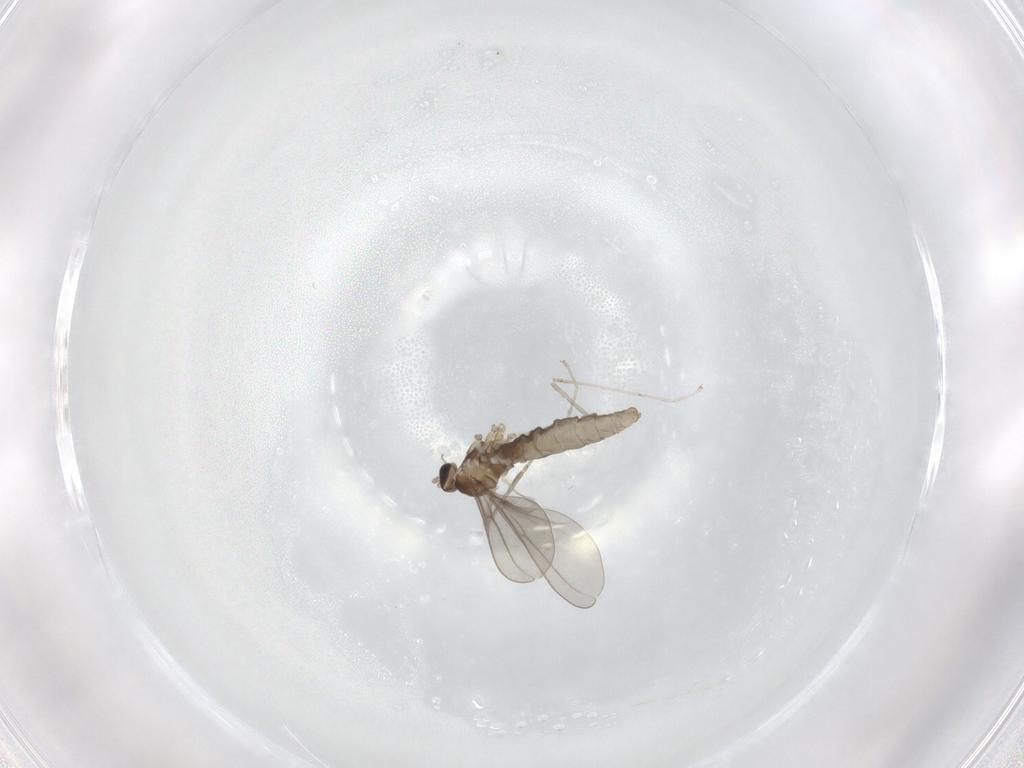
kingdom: Animalia
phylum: Arthropoda
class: Insecta
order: Diptera
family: Cecidomyiidae
